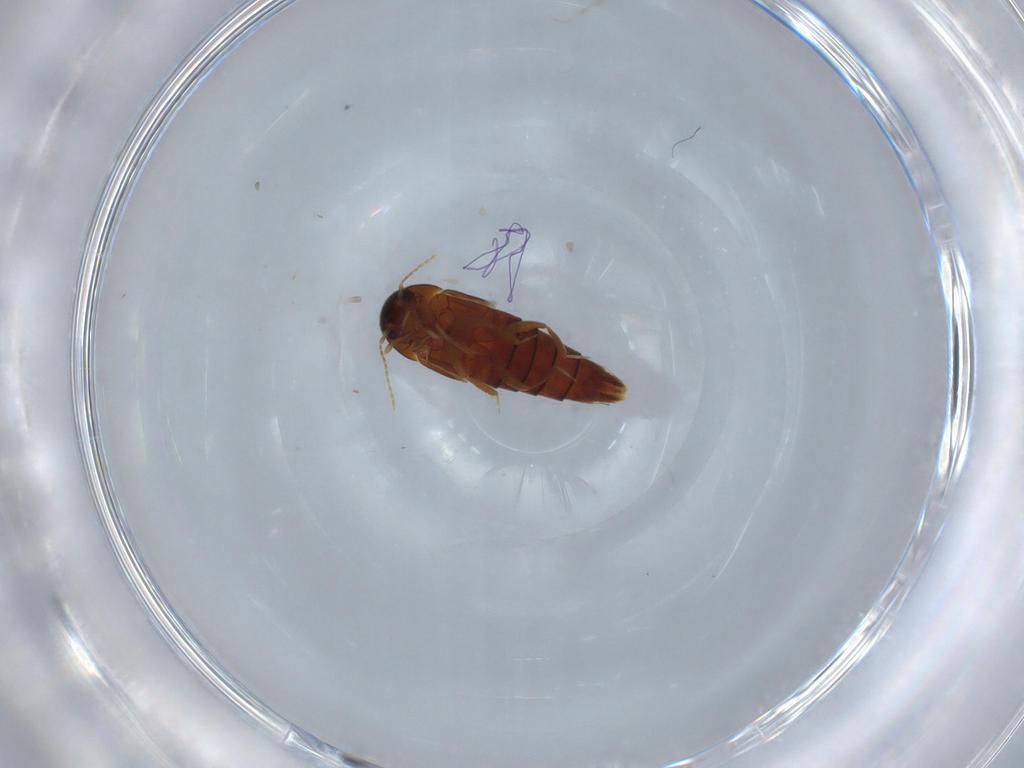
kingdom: Animalia
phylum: Arthropoda
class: Insecta
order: Coleoptera
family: Staphylinidae
